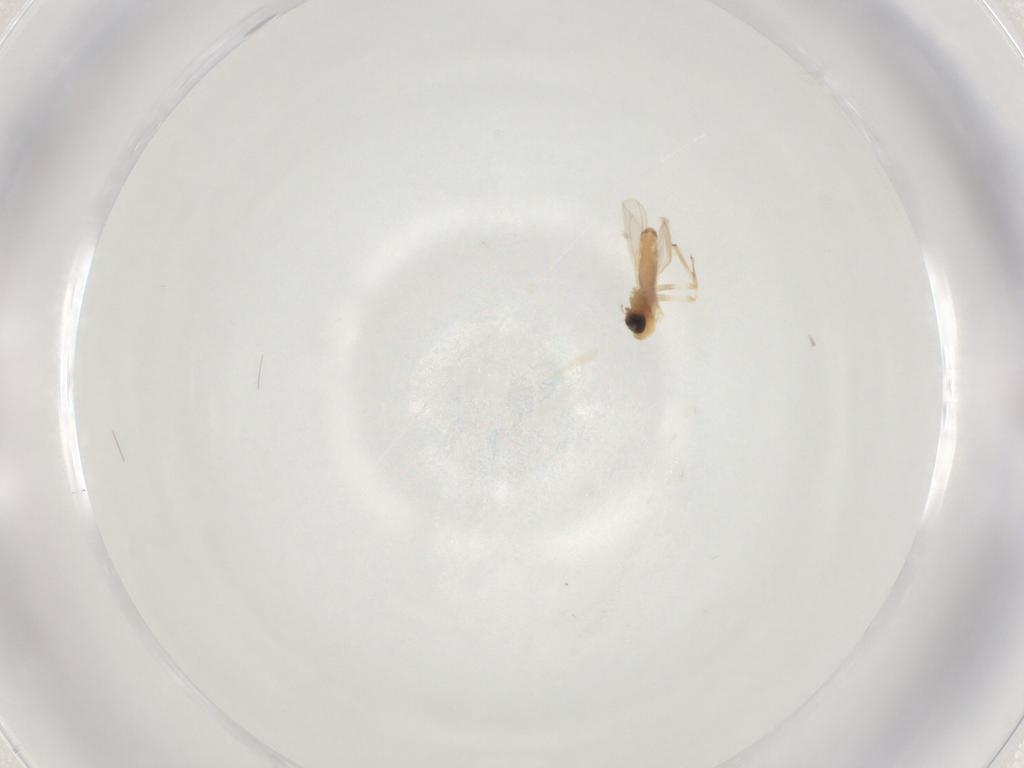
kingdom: Animalia
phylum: Arthropoda
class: Insecta
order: Diptera
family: Chironomidae
